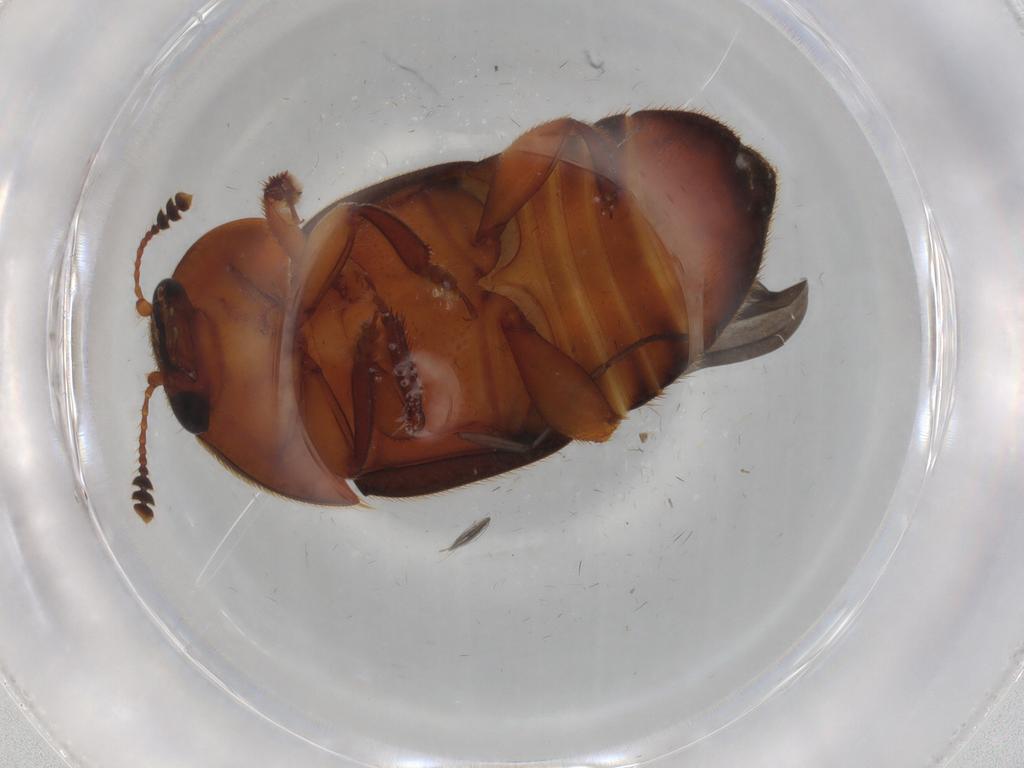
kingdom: Animalia
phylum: Arthropoda
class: Insecta
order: Coleoptera
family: Nitidulidae
